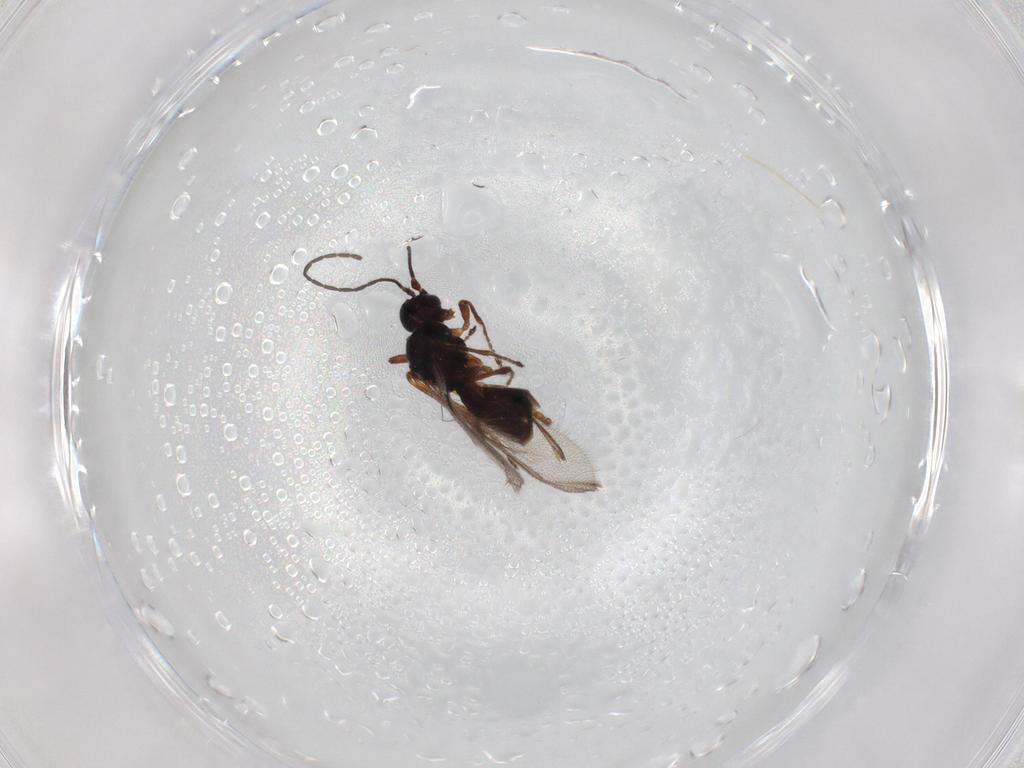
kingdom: Animalia
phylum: Arthropoda
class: Insecta
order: Hymenoptera
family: Braconidae
